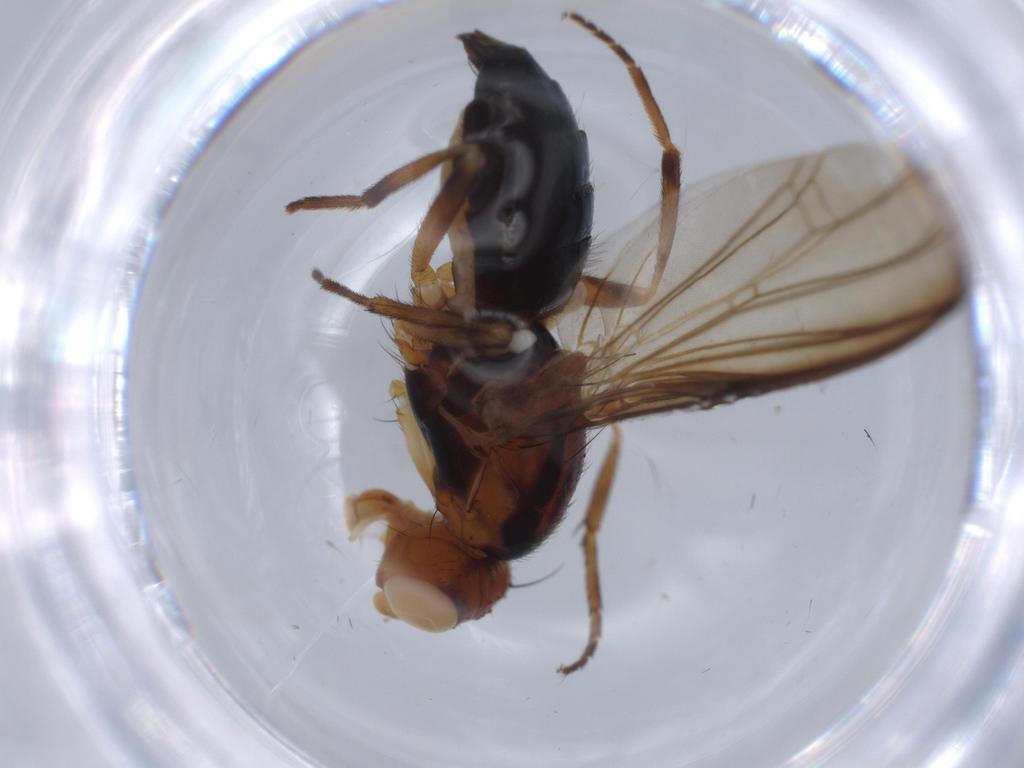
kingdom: Animalia
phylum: Arthropoda
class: Insecta
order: Diptera
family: Piophilidae
